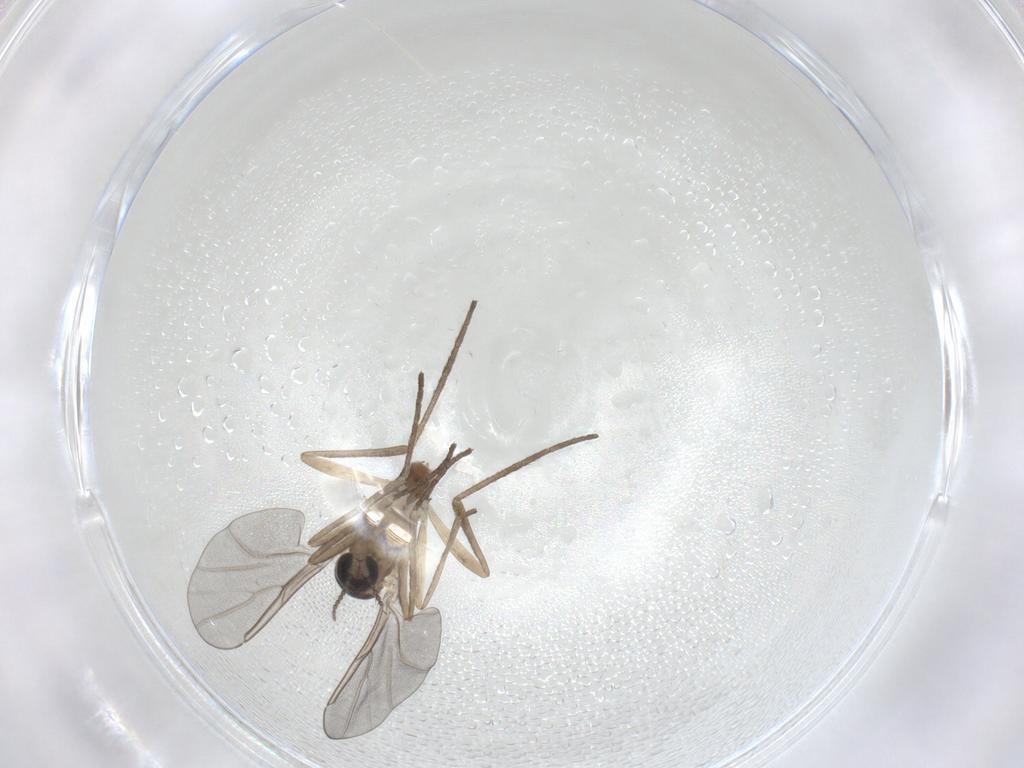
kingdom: Animalia
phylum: Arthropoda
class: Insecta
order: Diptera
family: Cecidomyiidae
